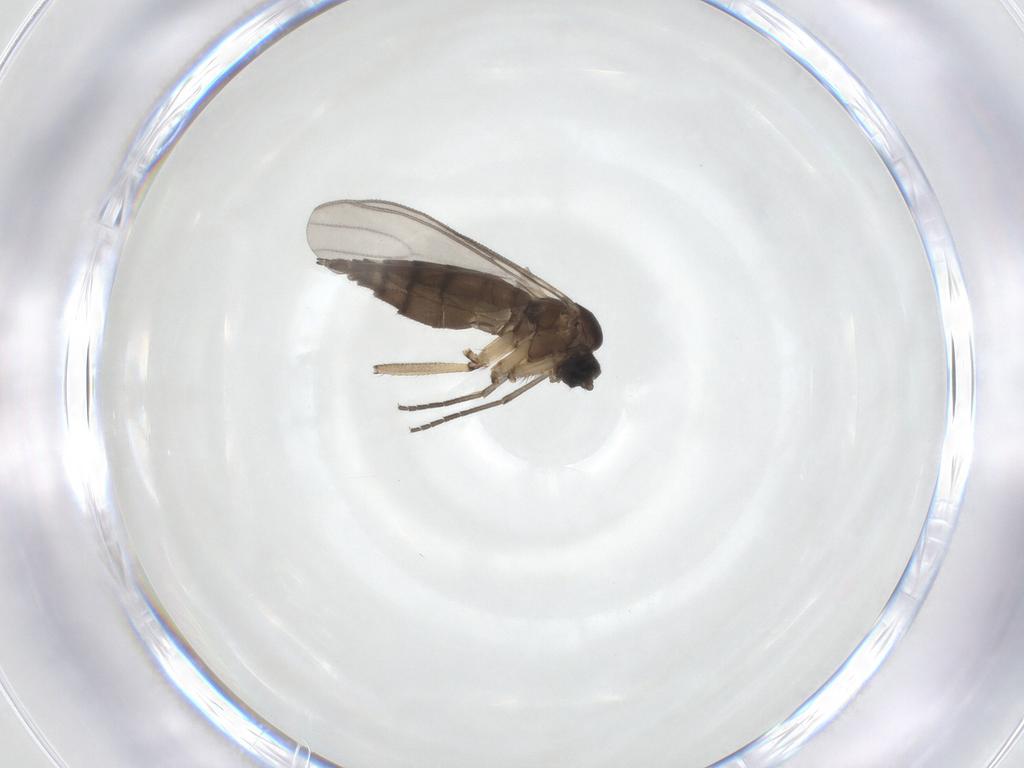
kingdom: Animalia
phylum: Arthropoda
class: Insecta
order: Diptera
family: Sciaridae
